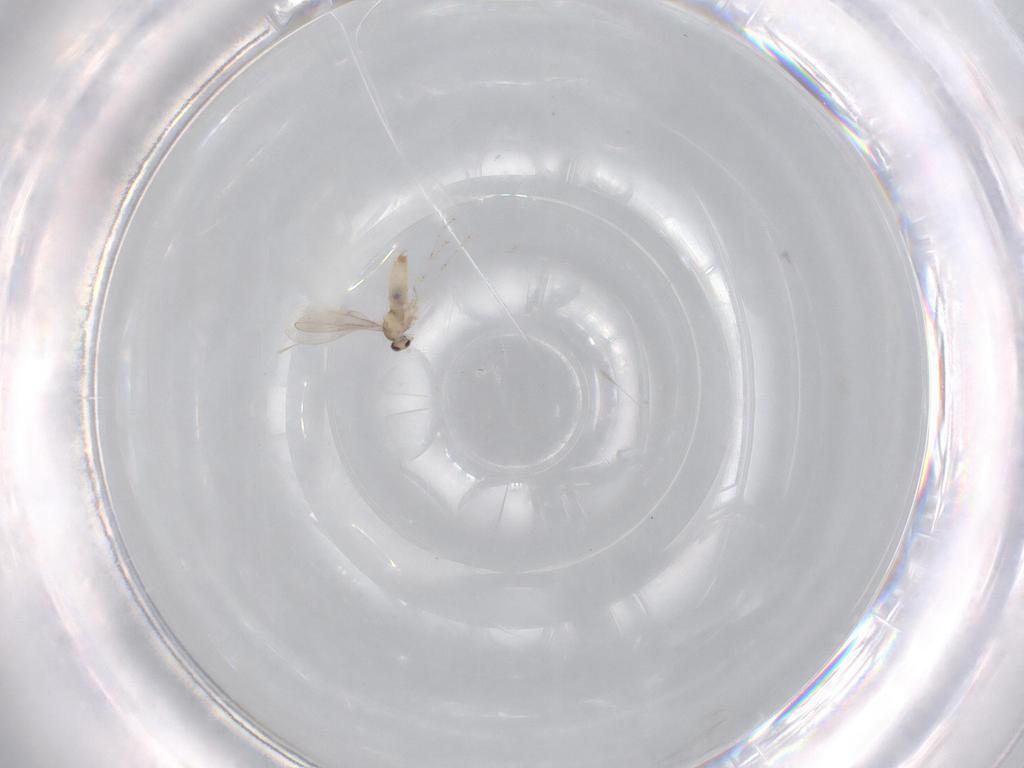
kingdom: Animalia
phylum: Arthropoda
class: Insecta
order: Diptera
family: Cecidomyiidae
